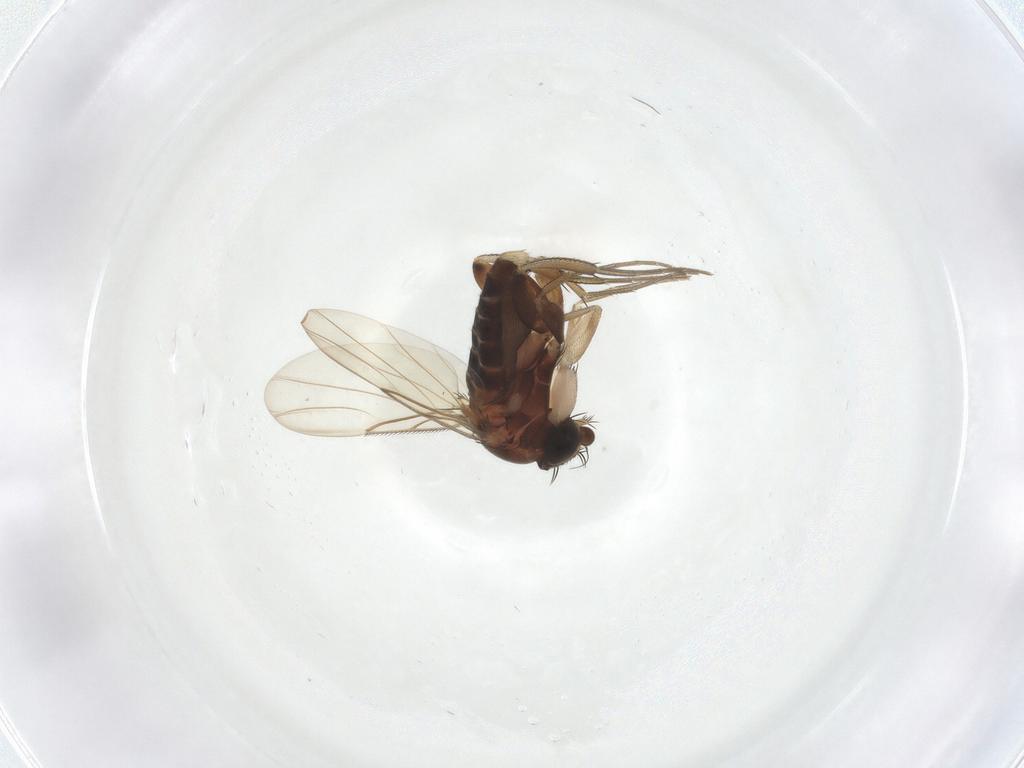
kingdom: Animalia
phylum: Arthropoda
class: Insecta
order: Diptera
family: Phoridae
